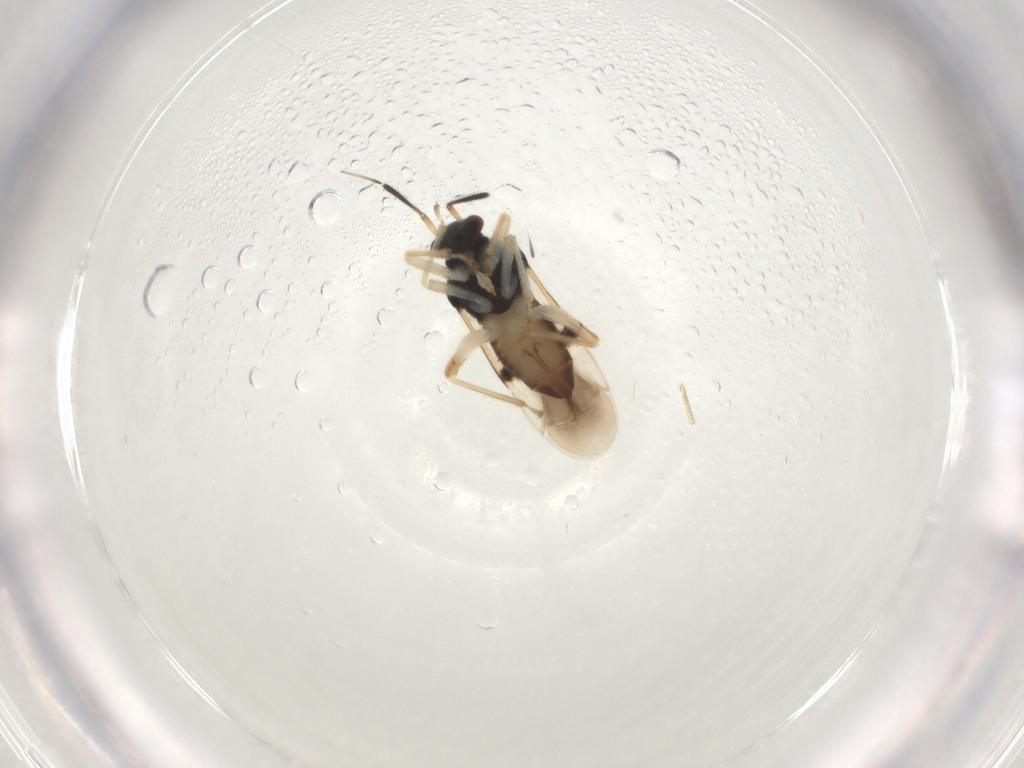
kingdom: Animalia
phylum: Arthropoda
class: Insecta
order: Hemiptera
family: Miridae
